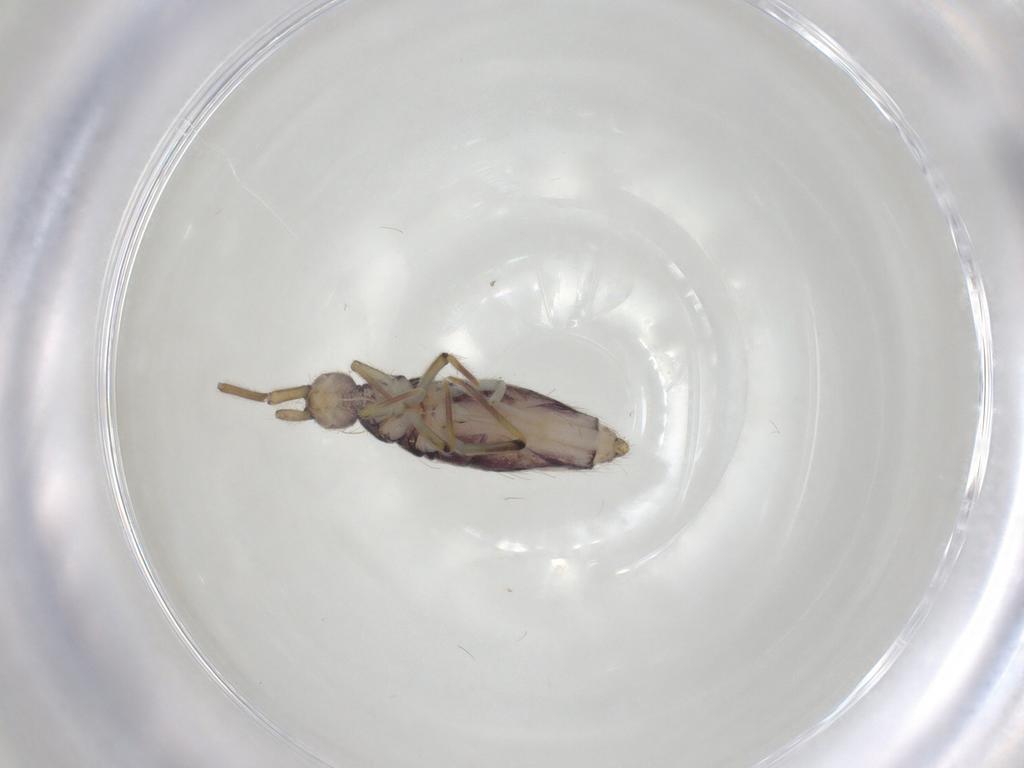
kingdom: Animalia
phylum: Arthropoda
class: Collembola
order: Entomobryomorpha
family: Entomobryidae
